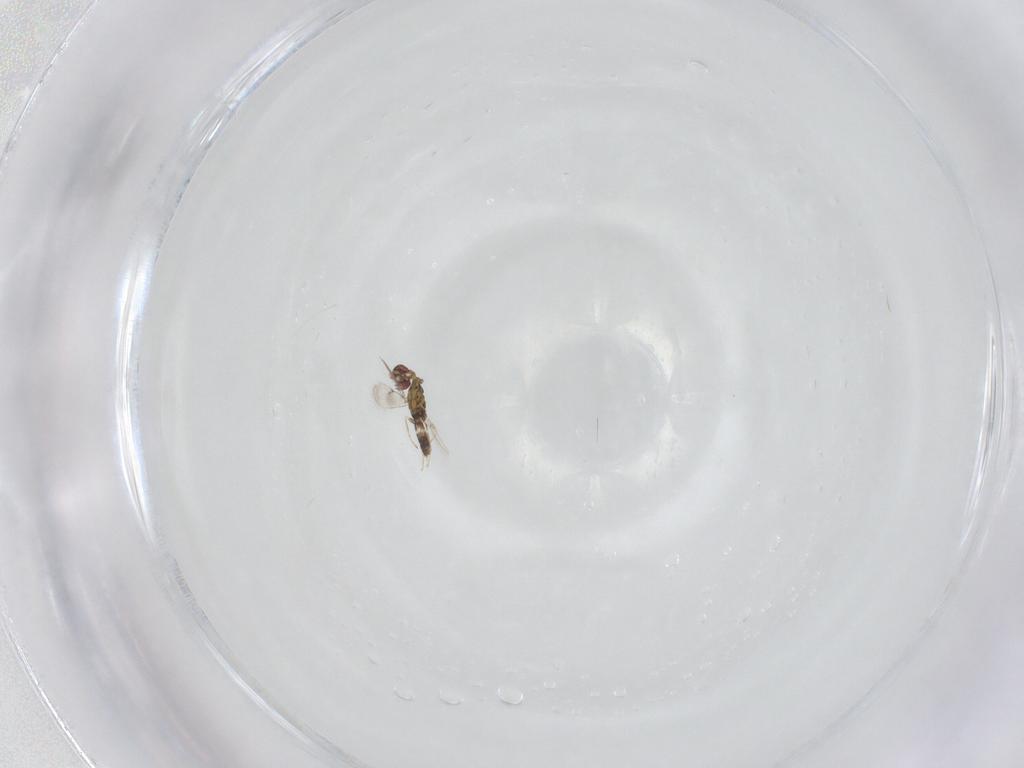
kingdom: Animalia
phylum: Arthropoda
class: Insecta
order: Hymenoptera
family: Eulophidae
